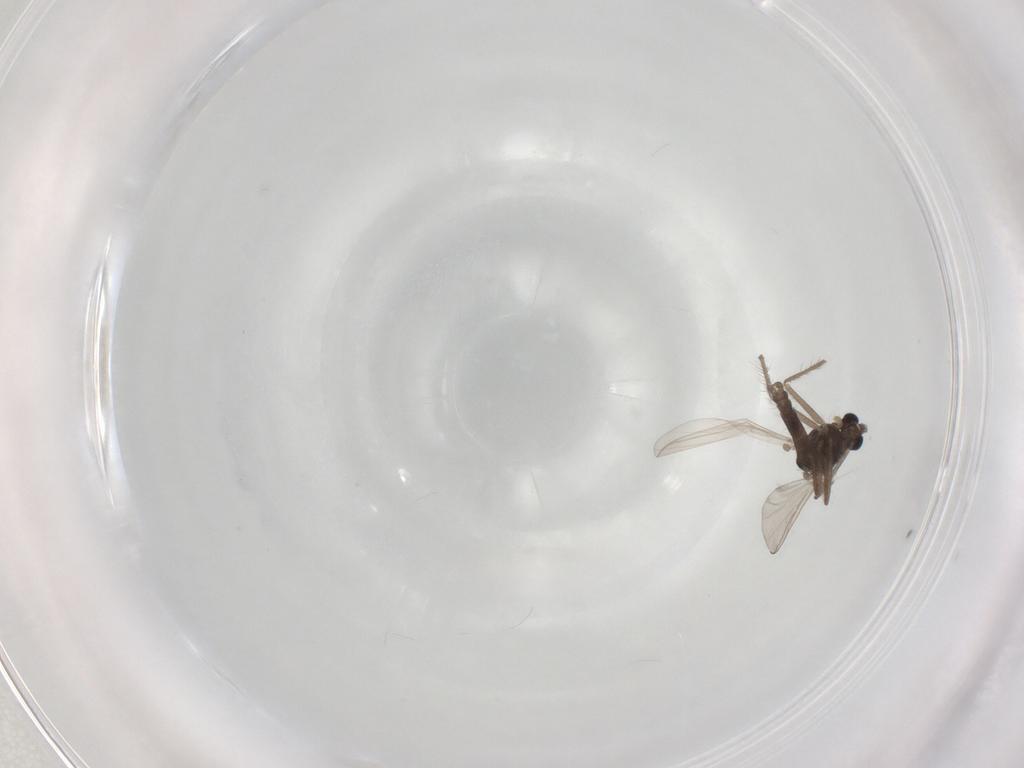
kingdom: Animalia
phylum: Arthropoda
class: Insecta
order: Diptera
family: Chironomidae
